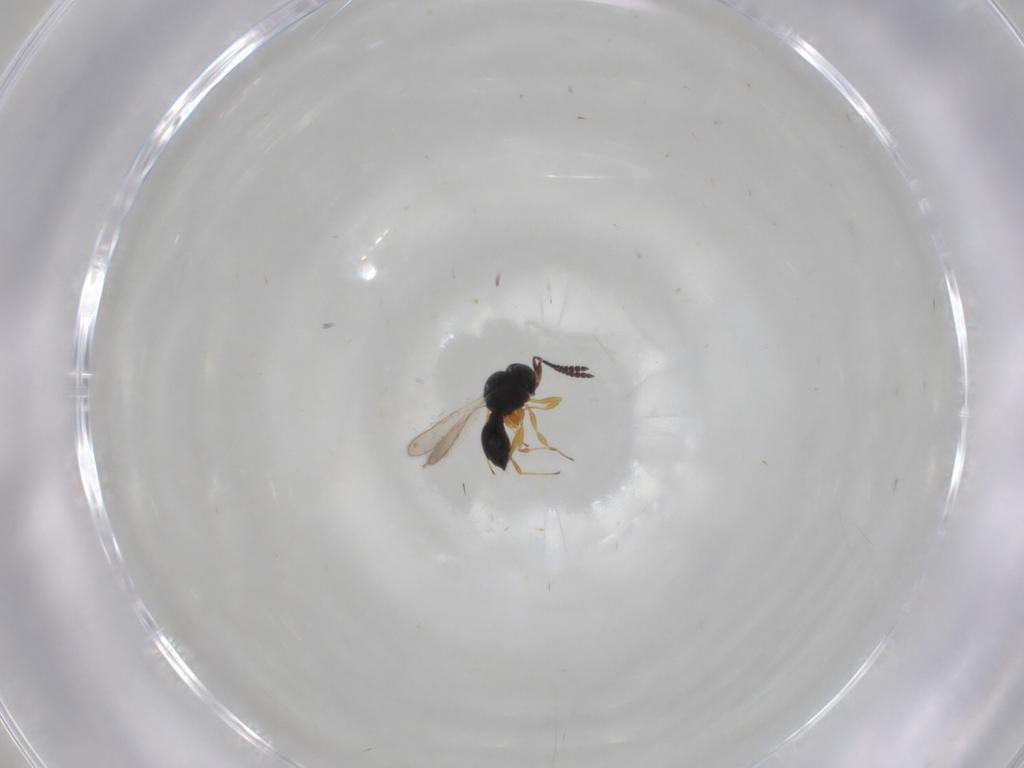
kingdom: Animalia
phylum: Arthropoda
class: Insecta
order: Hymenoptera
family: Scelionidae
